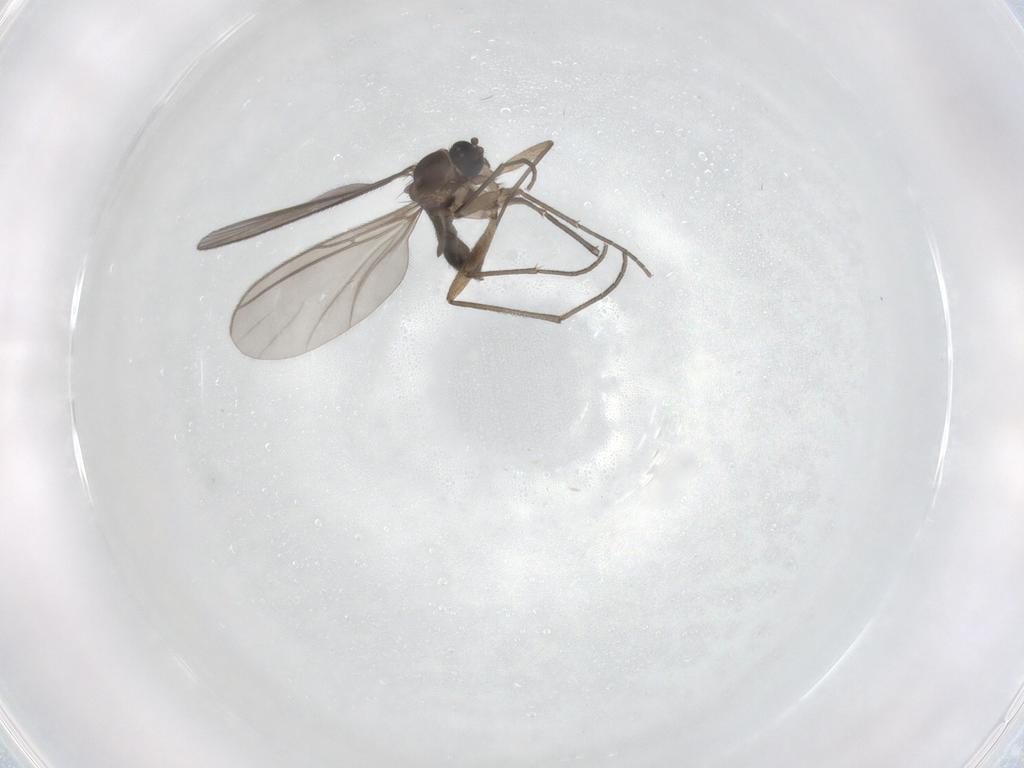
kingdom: Animalia
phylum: Arthropoda
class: Insecta
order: Diptera
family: Sciaridae
